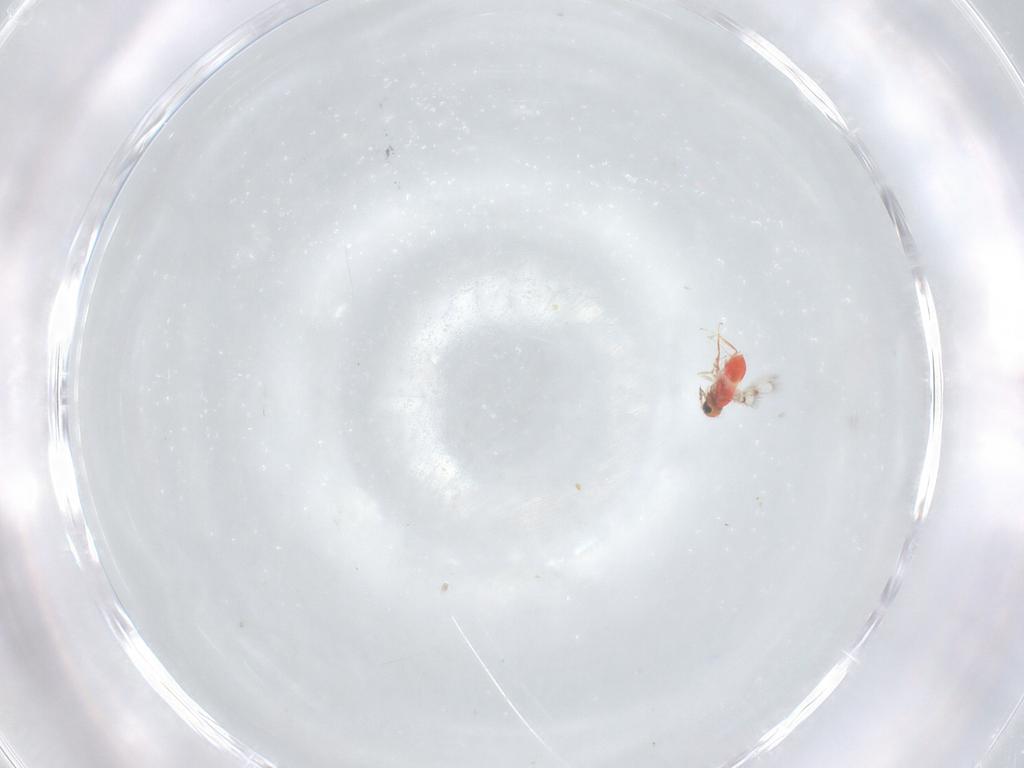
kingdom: Animalia
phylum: Arthropoda
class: Insecta
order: Hymenoptera
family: Trichogrammatidae
